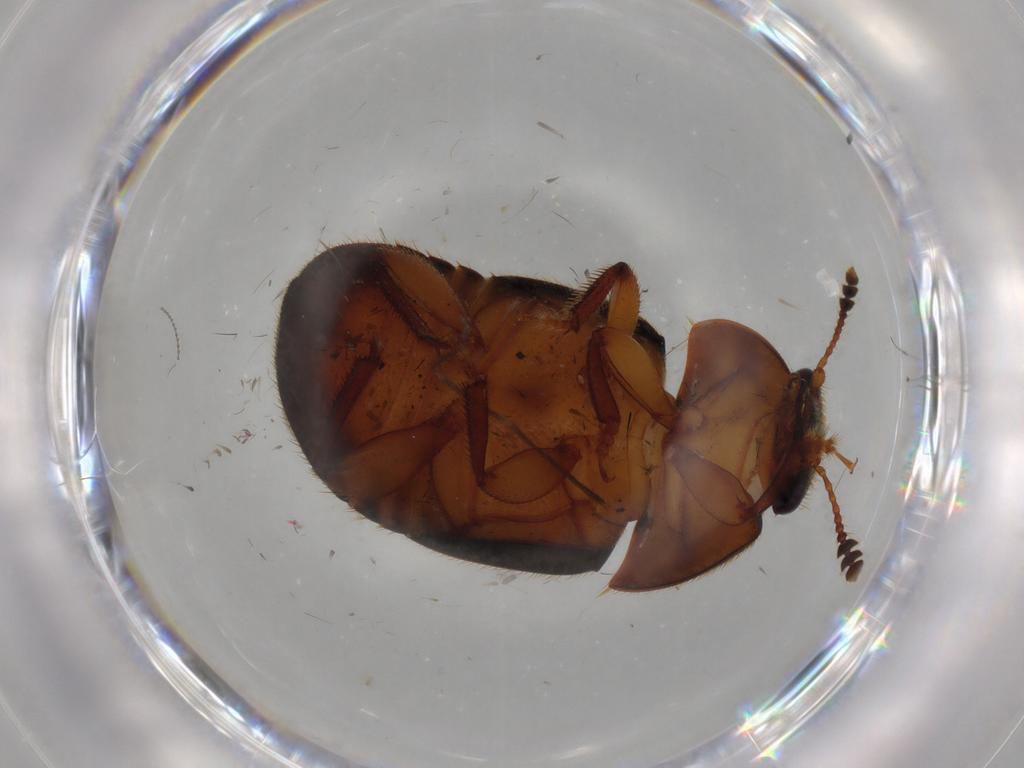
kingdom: Animalia
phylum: Arthropoda
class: Insecta
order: Coleoptera
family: Nitidulidae
